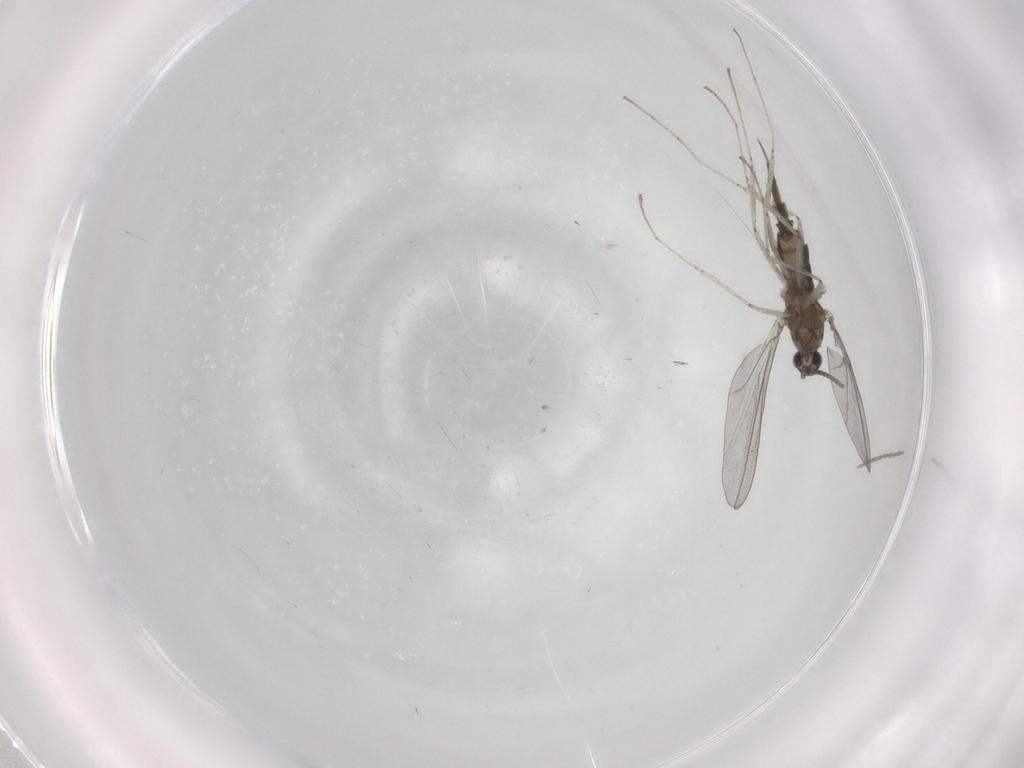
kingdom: Animalia
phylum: Arthropoda
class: Insecta
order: Diptera
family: Cecidomyiidae
